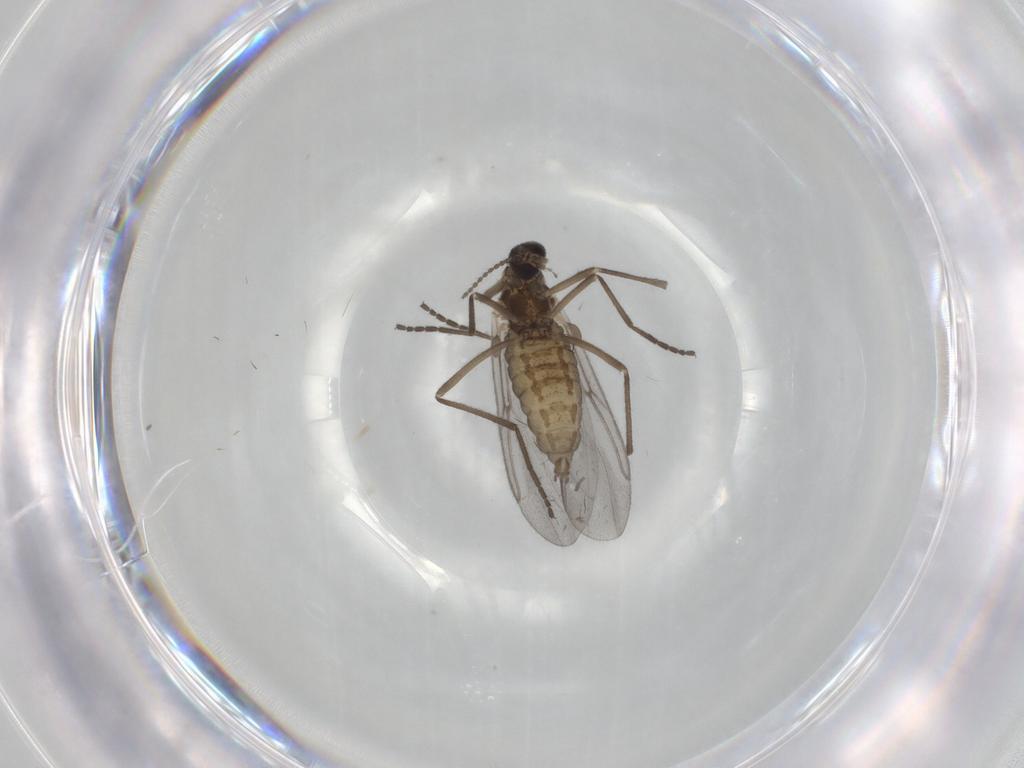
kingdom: Animalia
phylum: Arthropoda
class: Insecta
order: Diptera
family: Cecidomyiidae
